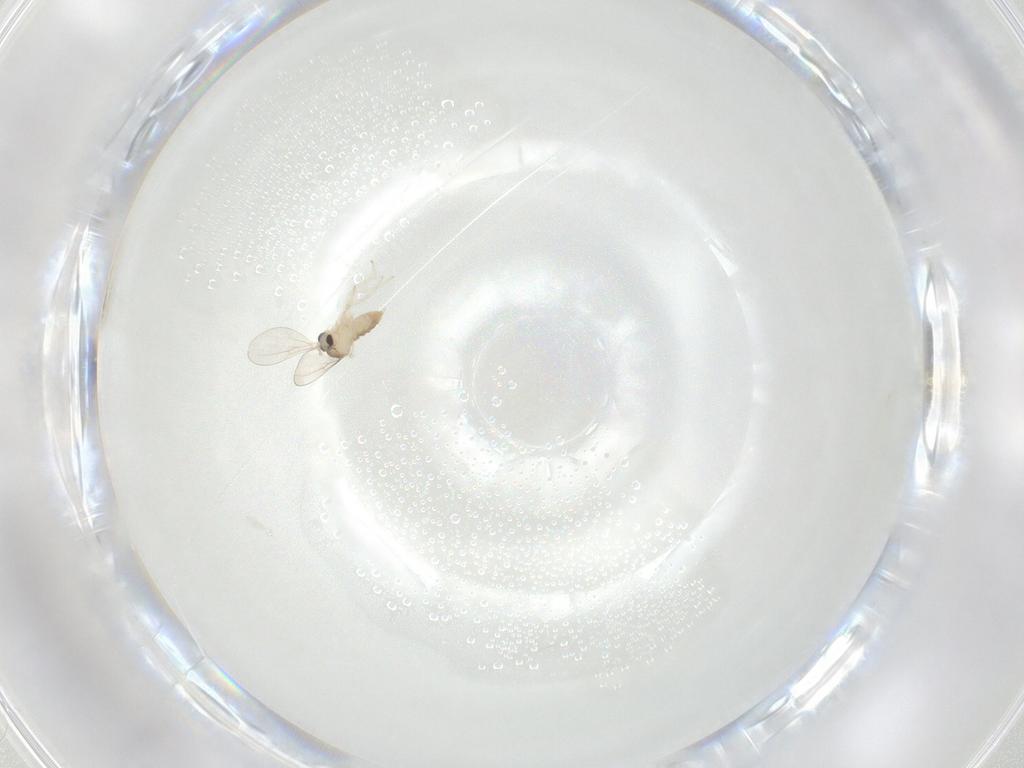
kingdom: Animalia
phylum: Arthropoda
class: Insecta
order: Diptera
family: Cecidomyiidae
